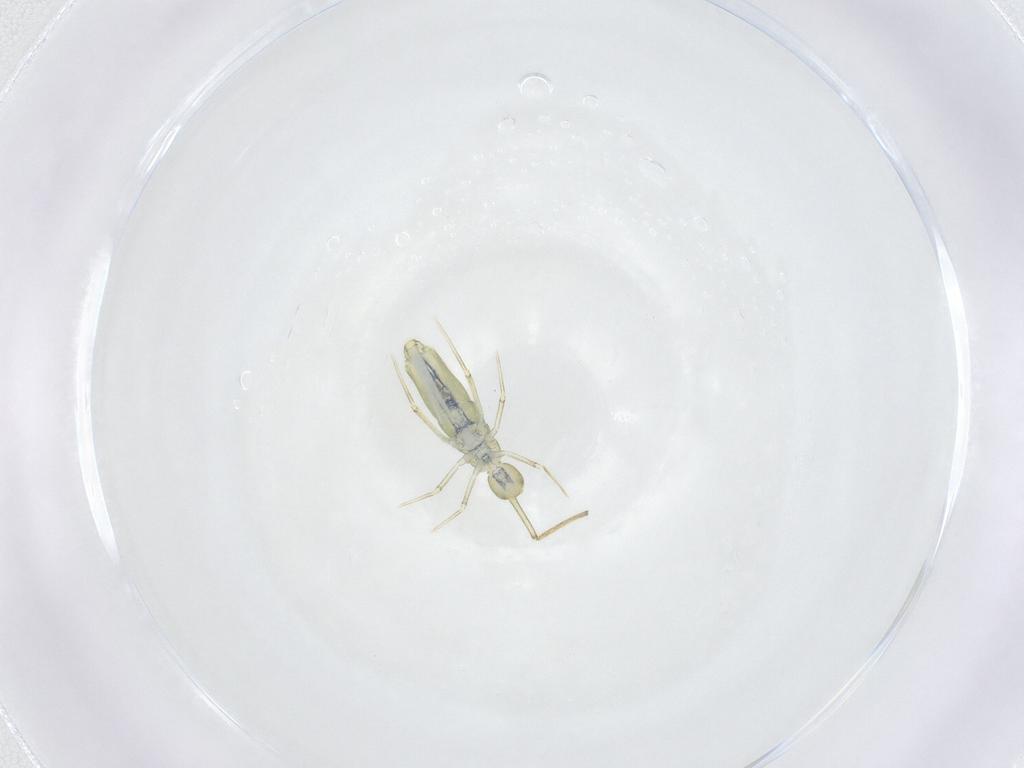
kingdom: Animalia
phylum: Arthropoda
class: Collembola
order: Entomobryomorpha
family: Paronellidae
